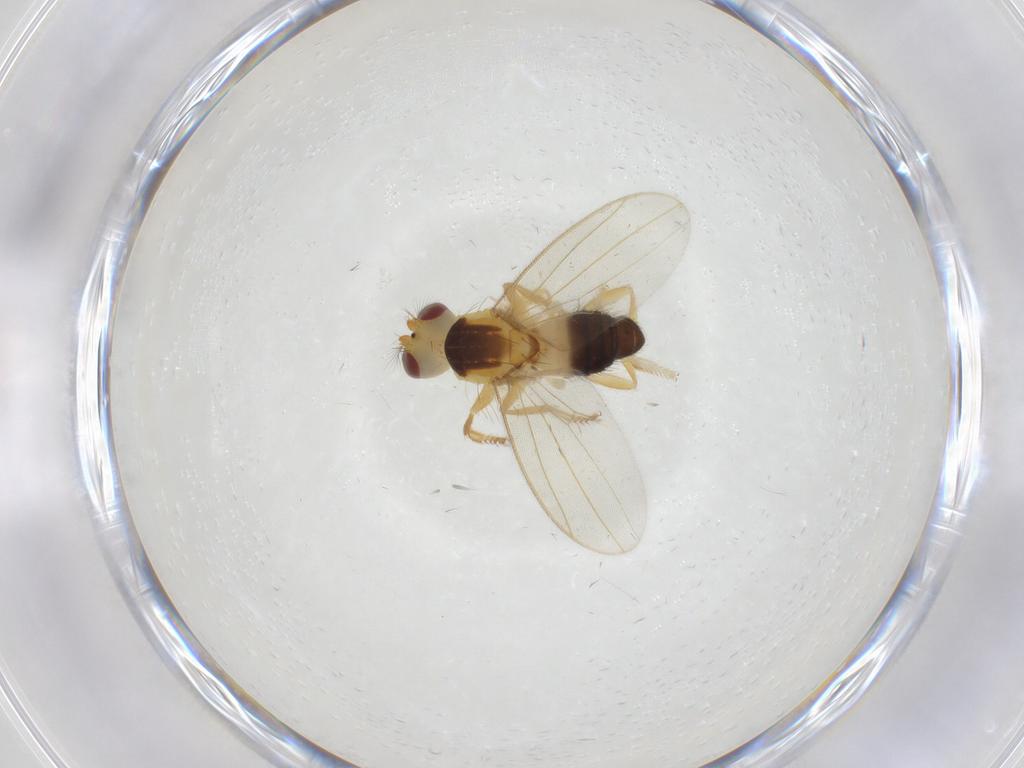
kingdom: Animalia
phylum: Arthropoda
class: Insecta
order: Diptera
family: Periscelididae
